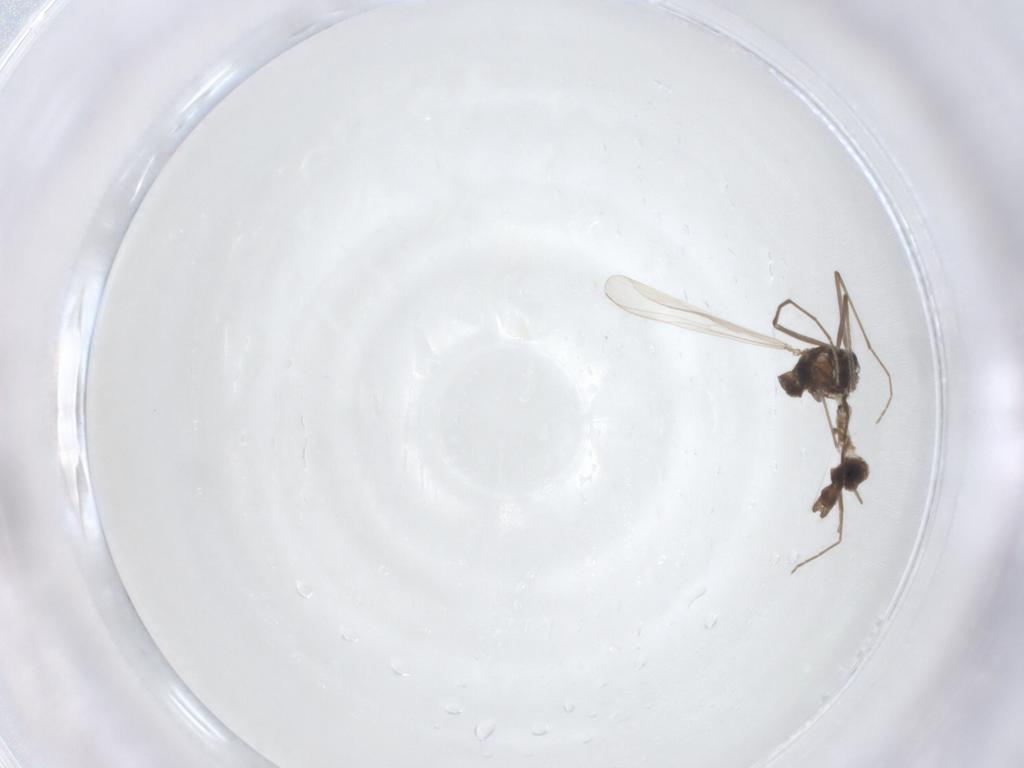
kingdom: Animalia
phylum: Arthropoda
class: Insecta
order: Diptera
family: Chironomidae
